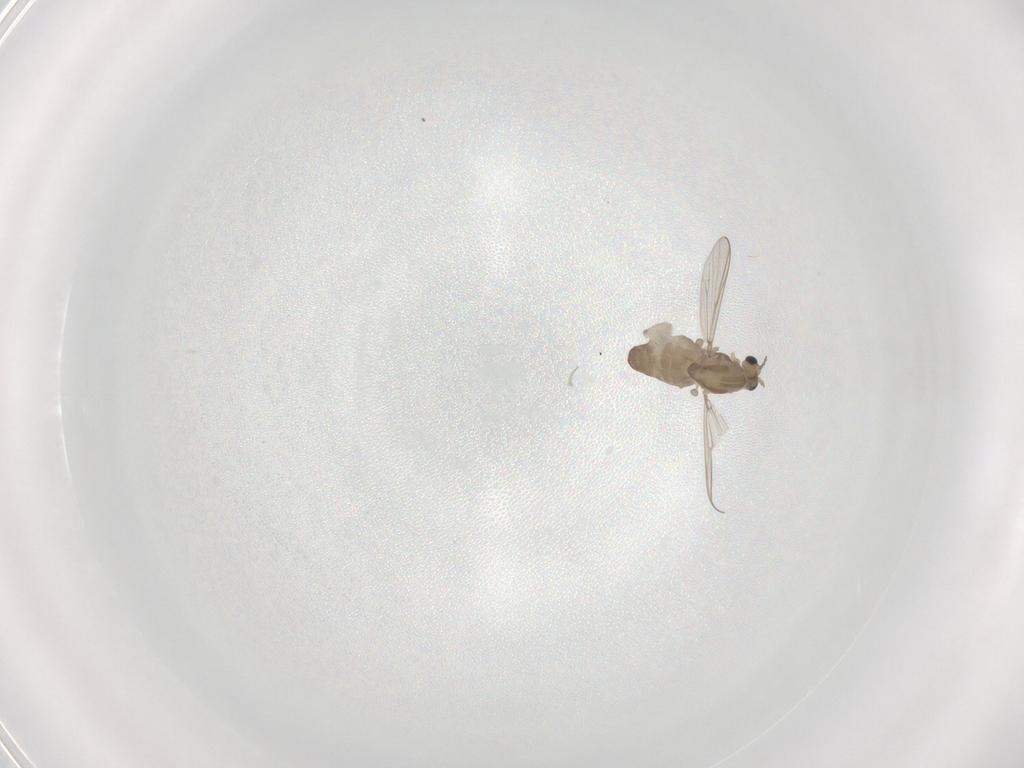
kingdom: Animalia
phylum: Arthropoda
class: Insecta
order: Diptera
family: Chironomidae
